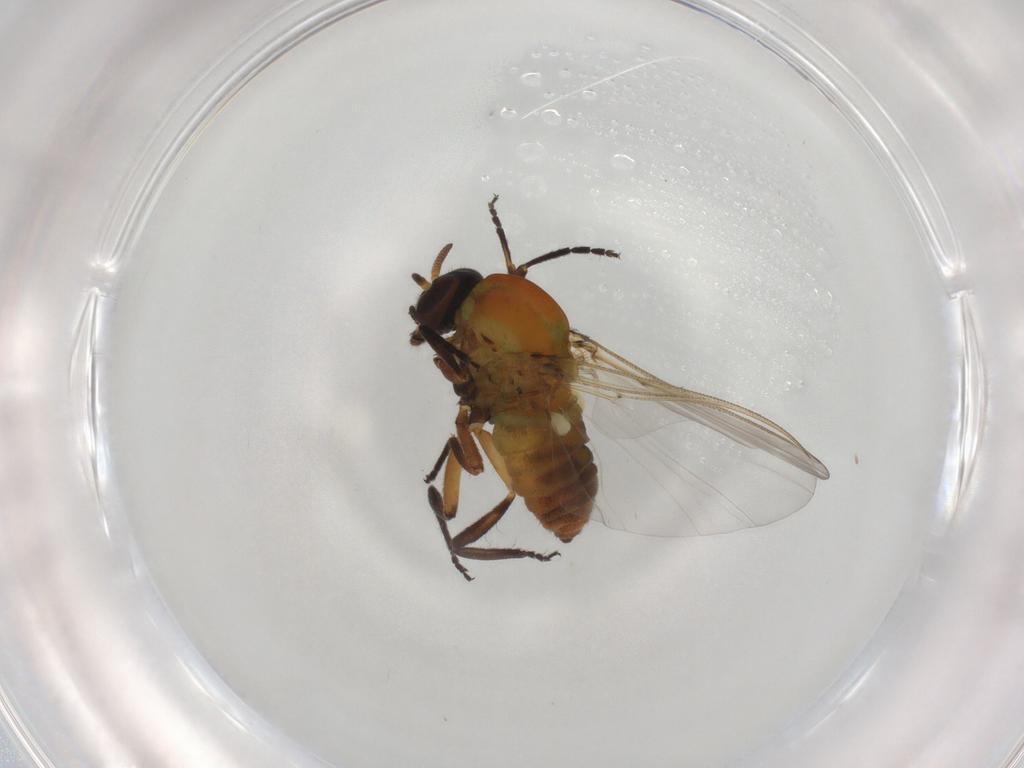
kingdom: Animalia
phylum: Arthropoda
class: Insecta
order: Diptera
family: Simuliidae
